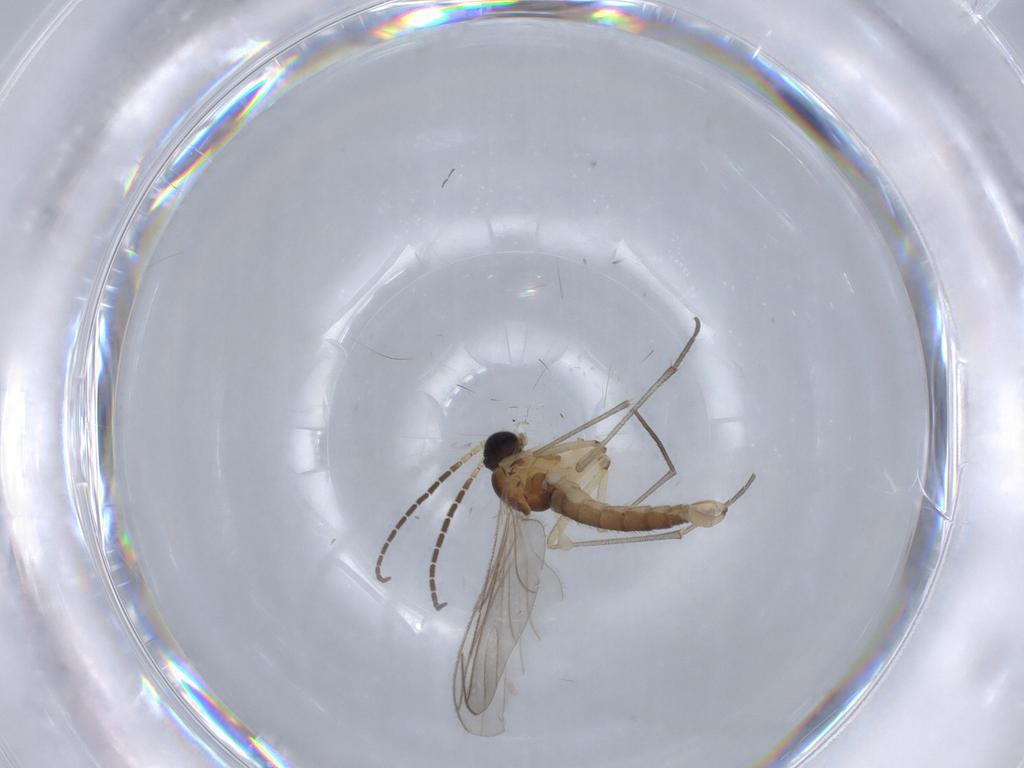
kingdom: Animalia
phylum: Arthropoda
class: Insecta
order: Diptera
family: Sciaridae
